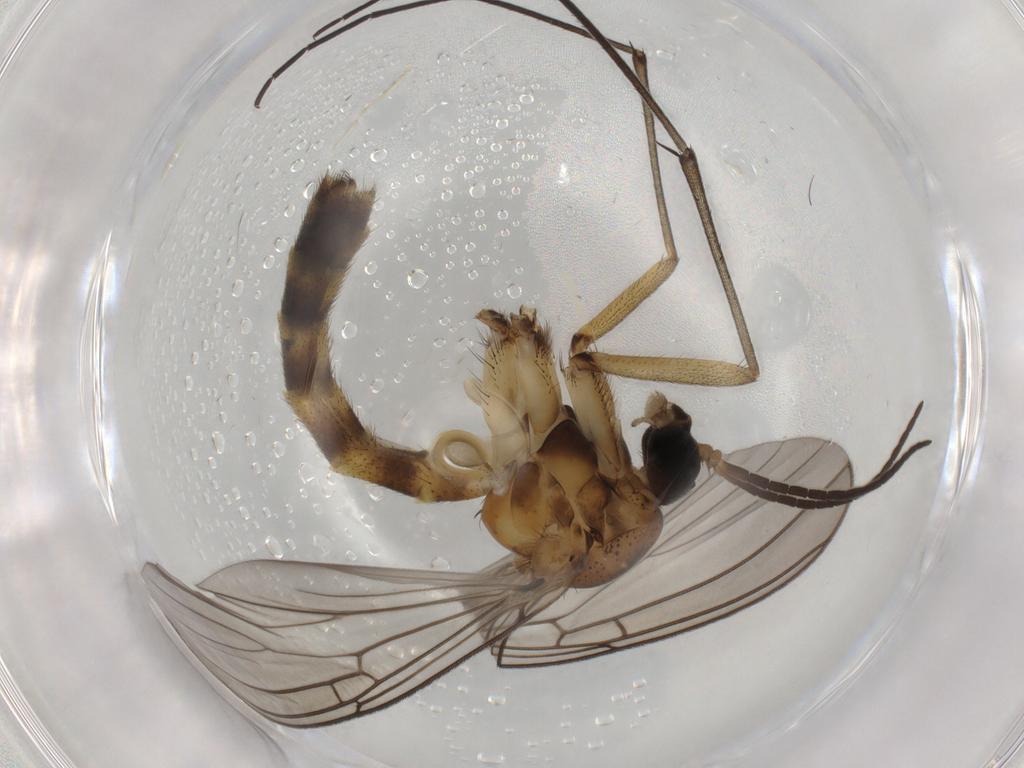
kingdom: Animalia
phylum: Arthropoda
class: Insecta
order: Diptera
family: Mycetophilidae
